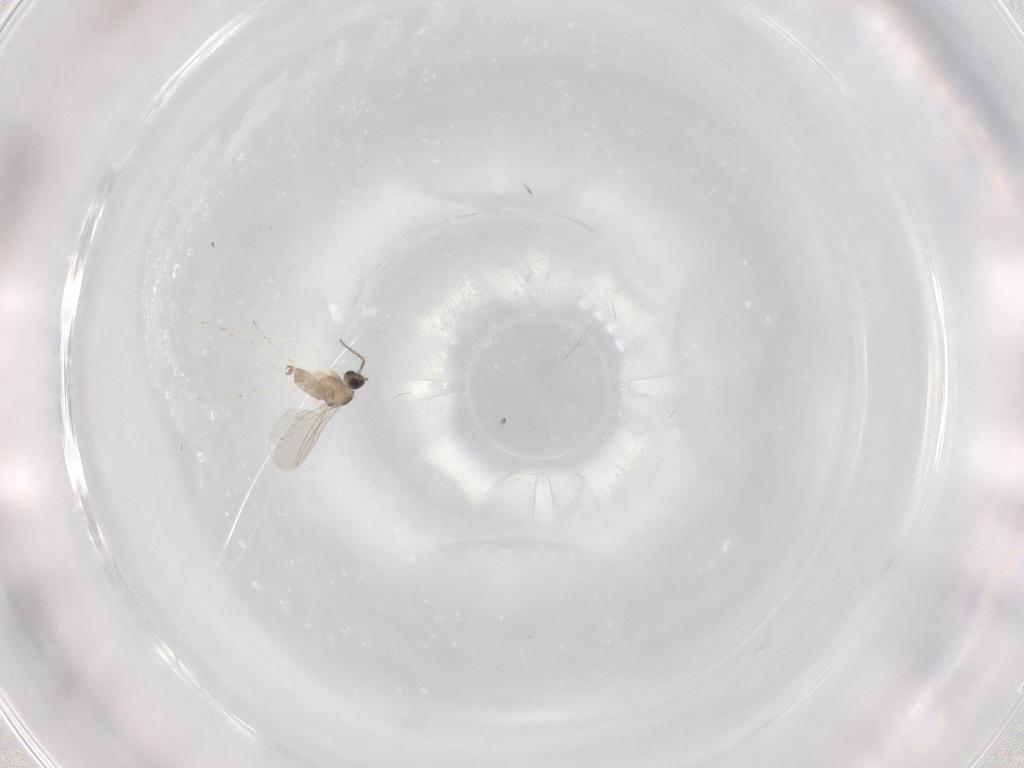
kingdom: Animalia
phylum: Arthropoda
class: Insecta
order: Diptera
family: Cecidomyiidae
